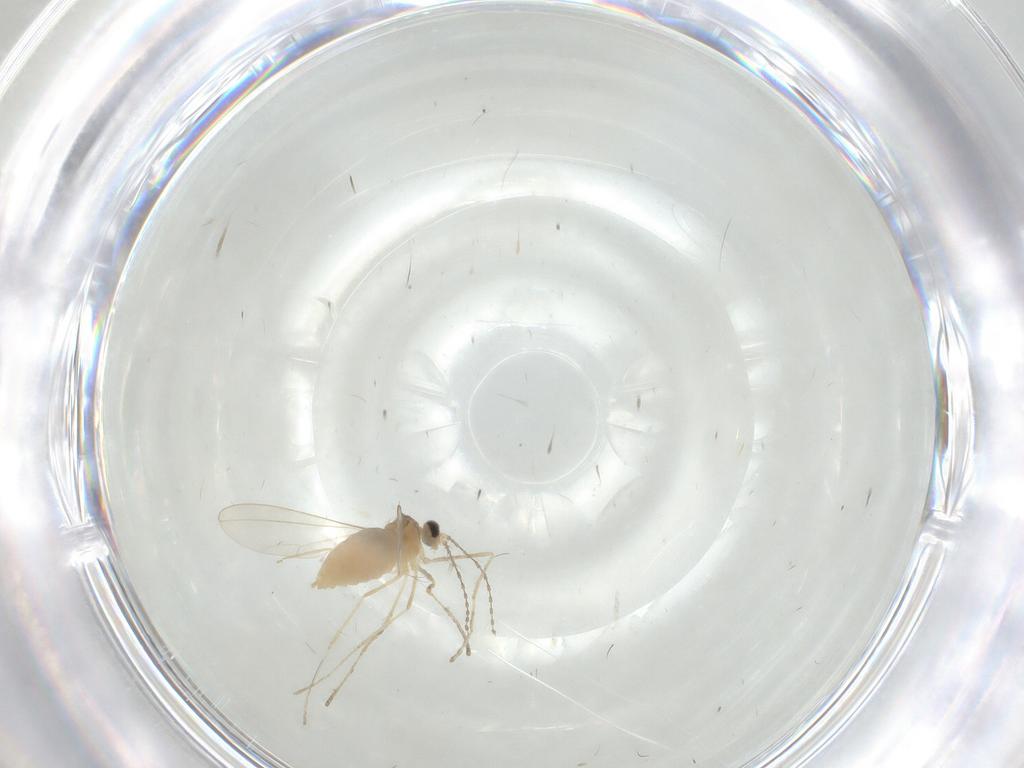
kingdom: Animalia
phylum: Arthropoda
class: Insecta
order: Diptera
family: Cecidomyiidae
